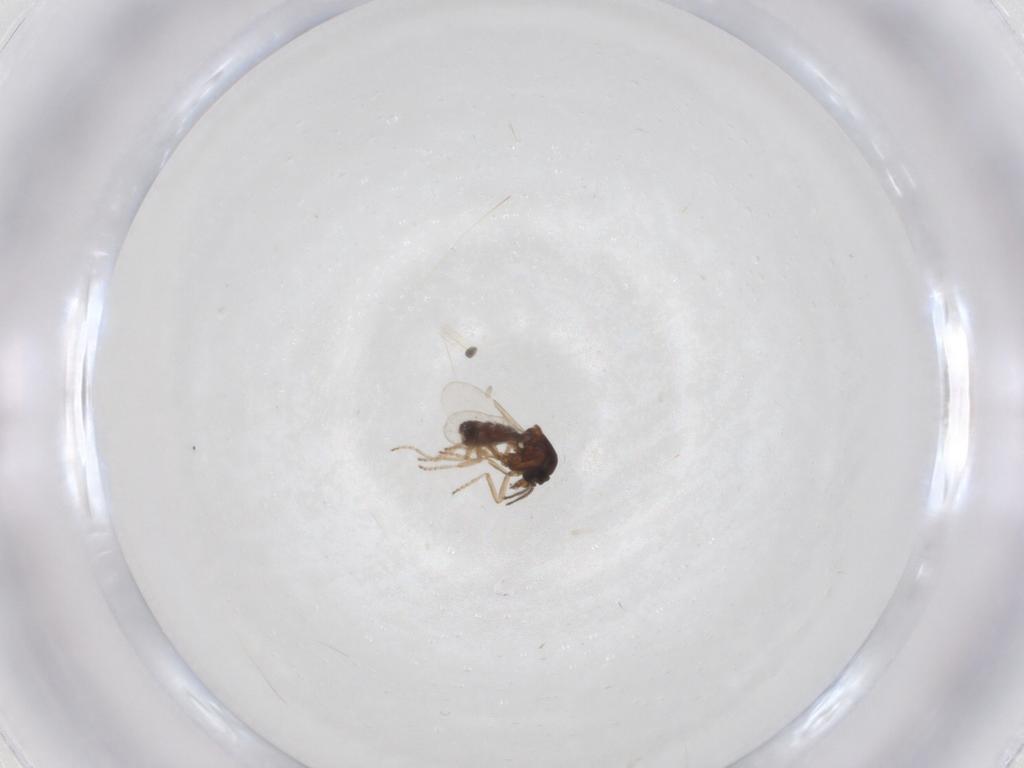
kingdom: Animalia
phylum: Arthropoda
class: Insecta
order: Diptera
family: Ceratopogonidae
